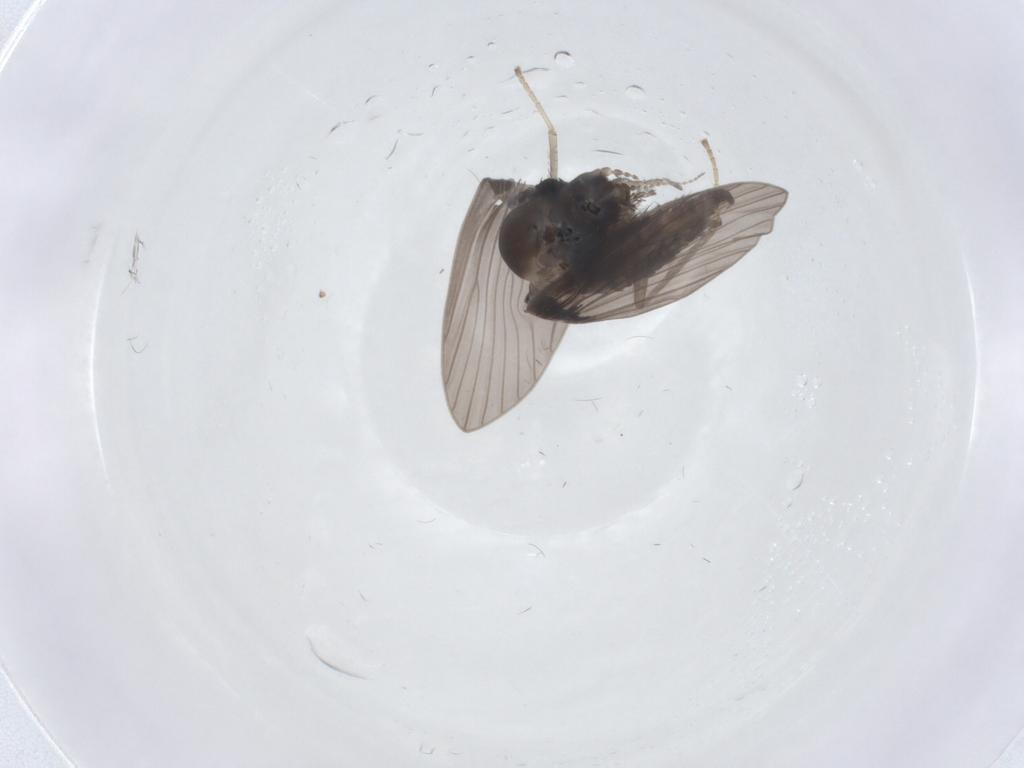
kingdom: Animalia
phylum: Arthropoda
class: Insecta
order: Diptera
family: Psychodidae
